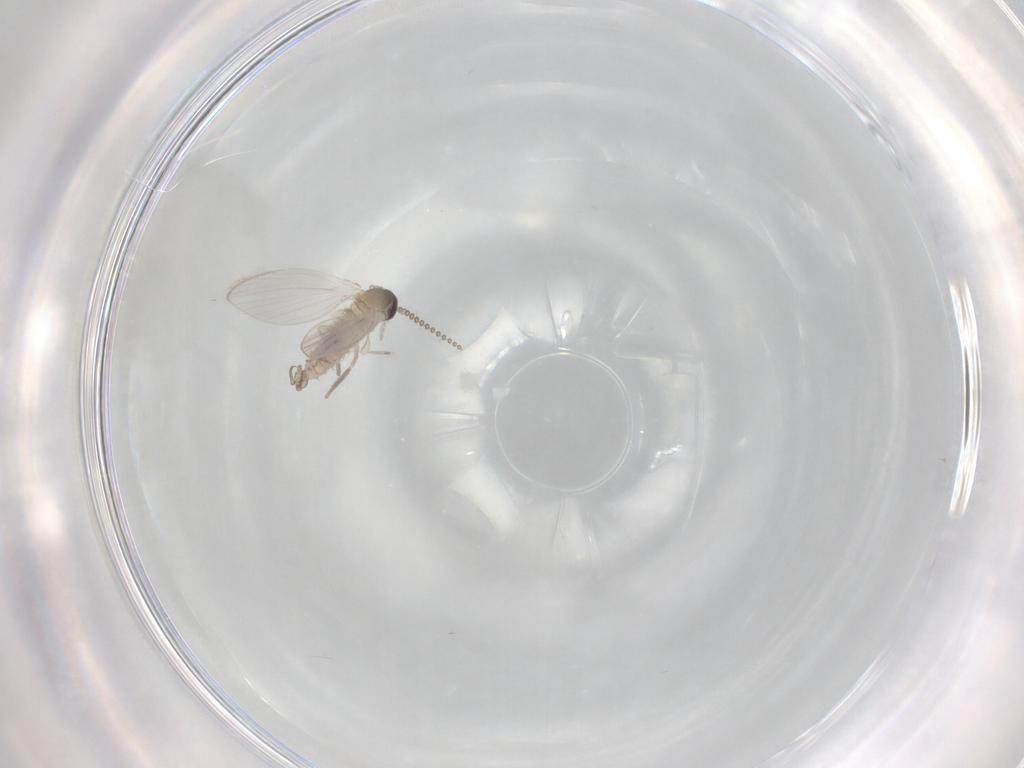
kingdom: Animalia
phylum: Arthropoda
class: Insecta
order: Diptera
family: Psychodidae
